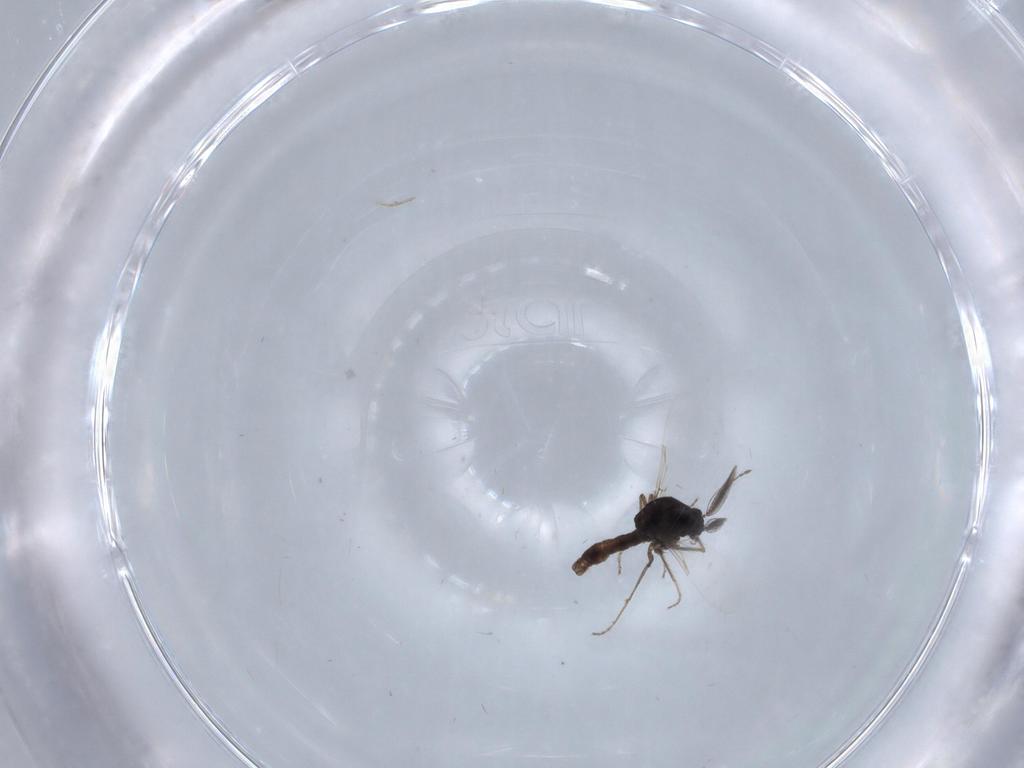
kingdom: Animalia
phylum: Arthropoda
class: Insecta
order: Diptera
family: Ceratopogonidae
